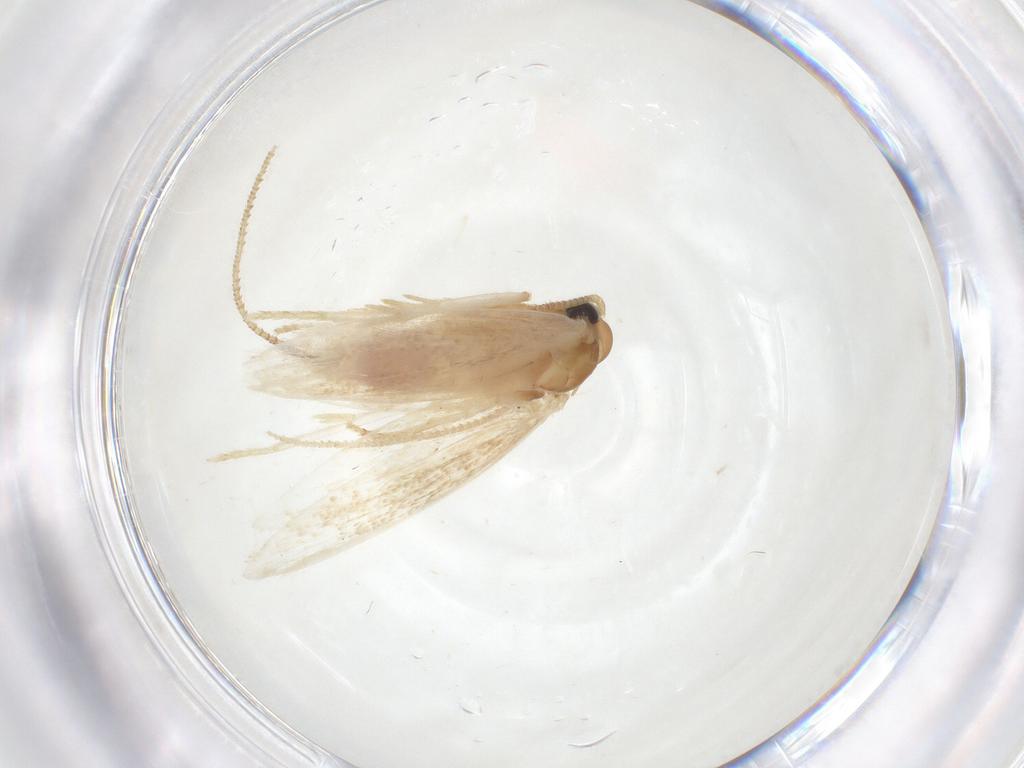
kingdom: Animalia
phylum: Arthropoda
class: Insecta
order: Lepidoptera
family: Autostichidae
